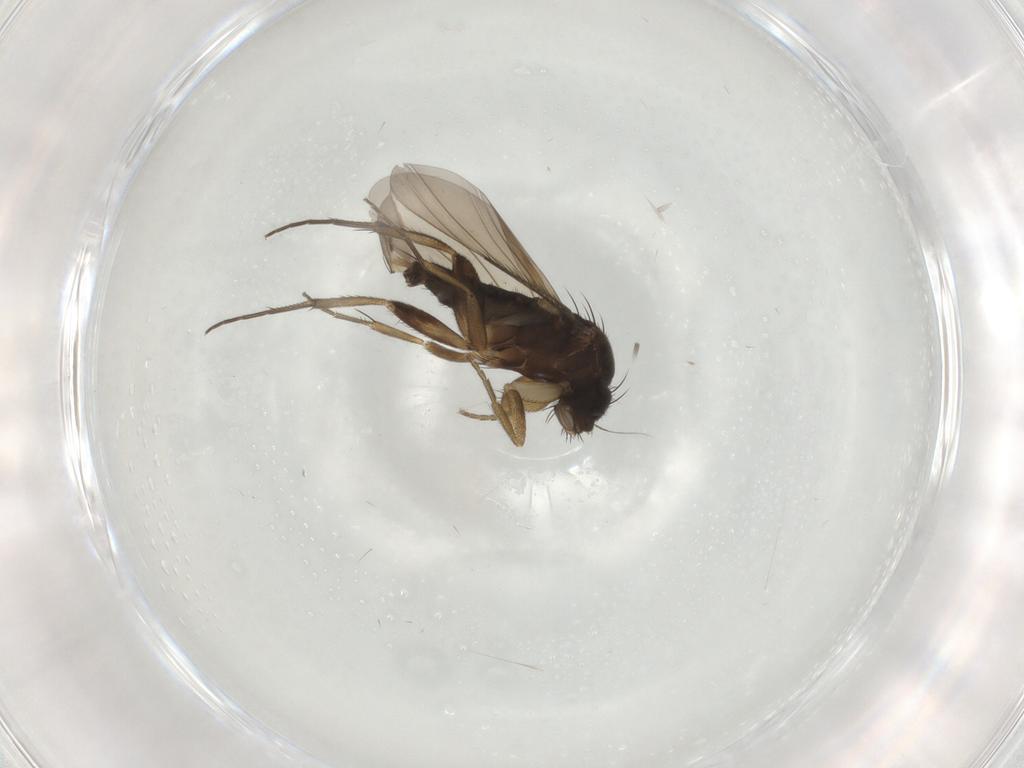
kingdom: Animalia
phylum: Arthropoda
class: Insecta
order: Diptera
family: Phoridae
